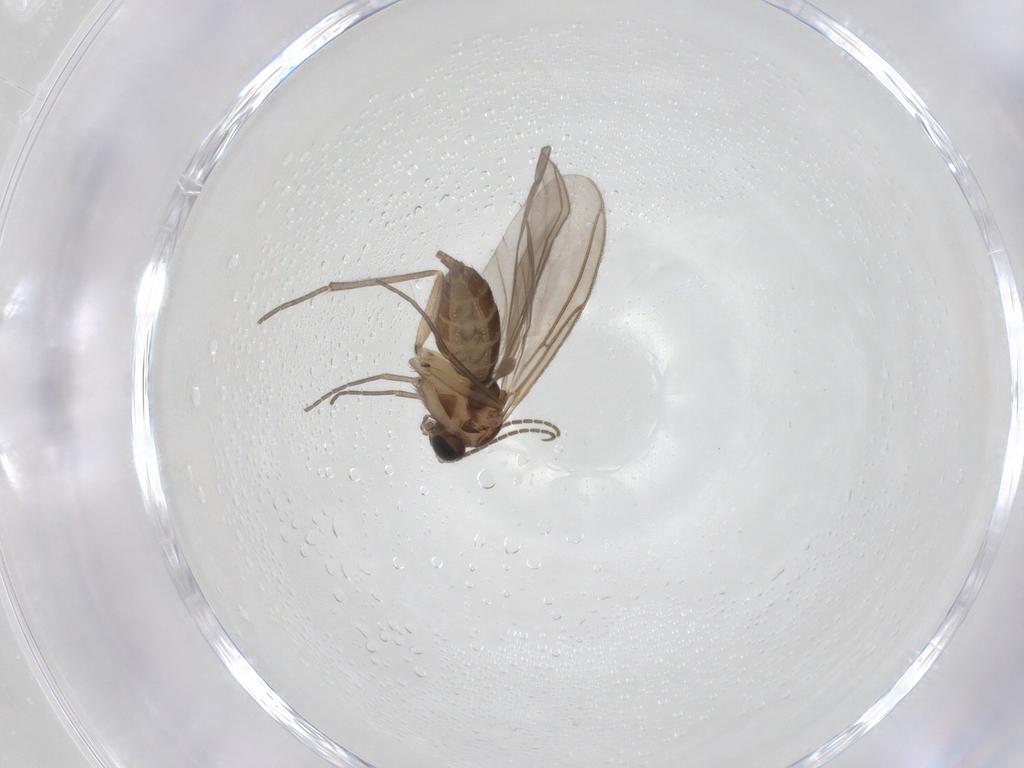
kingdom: Animalia
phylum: Arthropoda
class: Insecta
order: Diptera
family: Sciaridae
